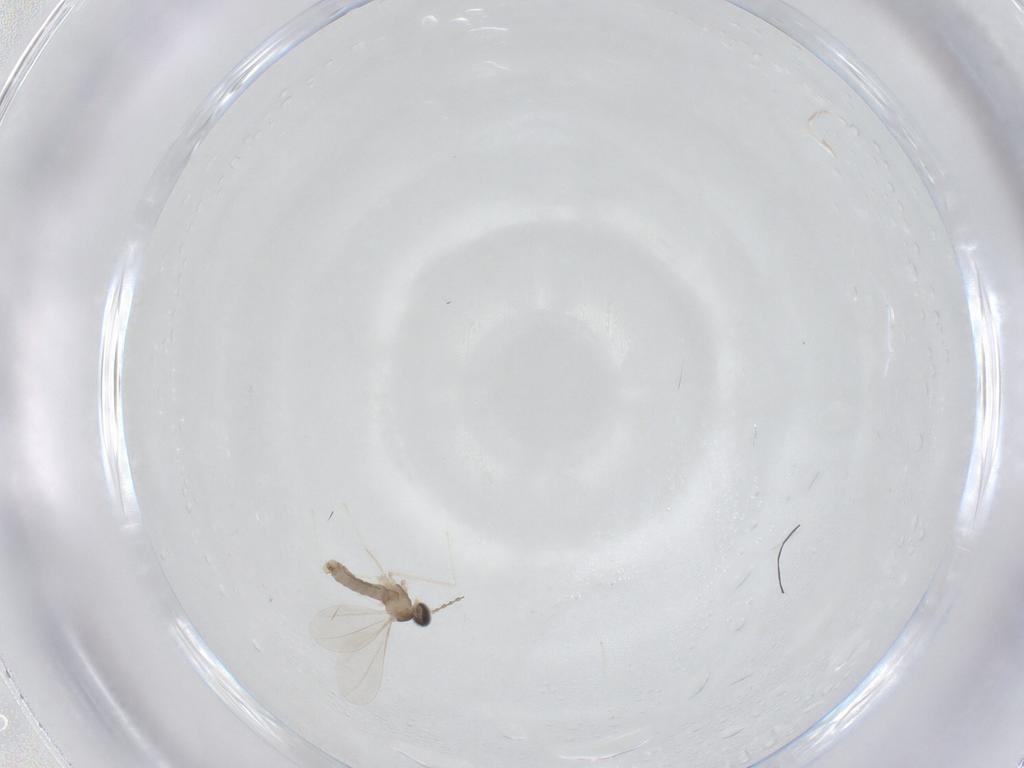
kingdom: Animalia
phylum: Arthropoda
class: Insecta
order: Diptera
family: Cecidomyiidae
